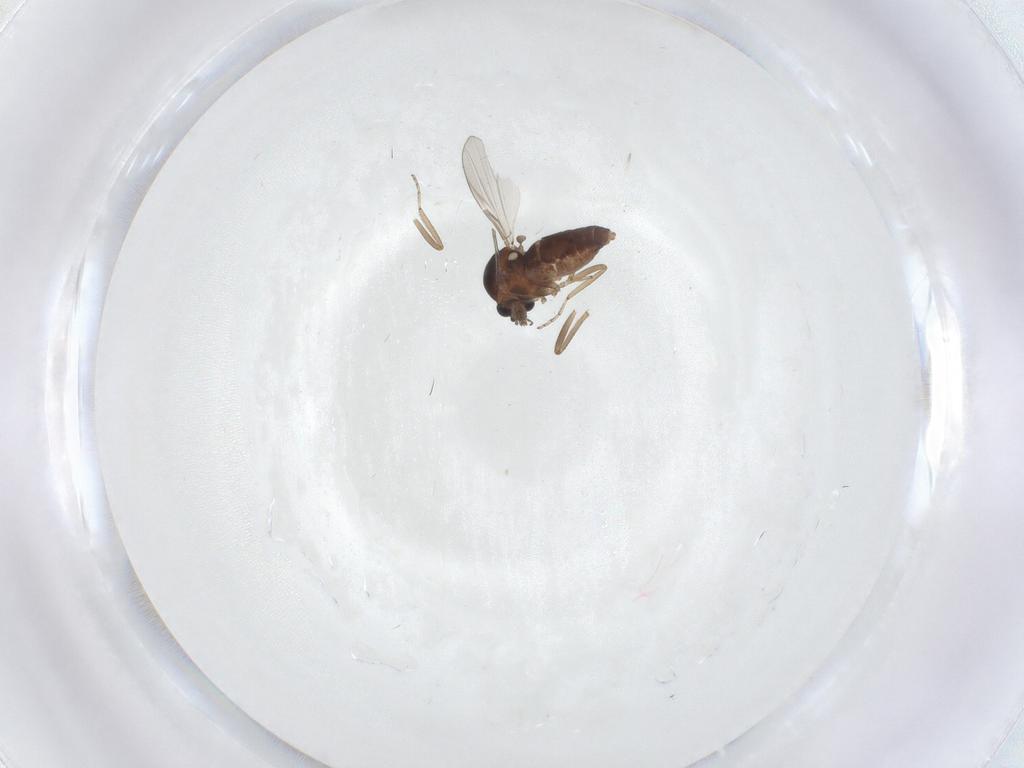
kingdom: Animalia
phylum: Arthropoda
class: Insecta
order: Diptera
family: Ceratopogonidae
